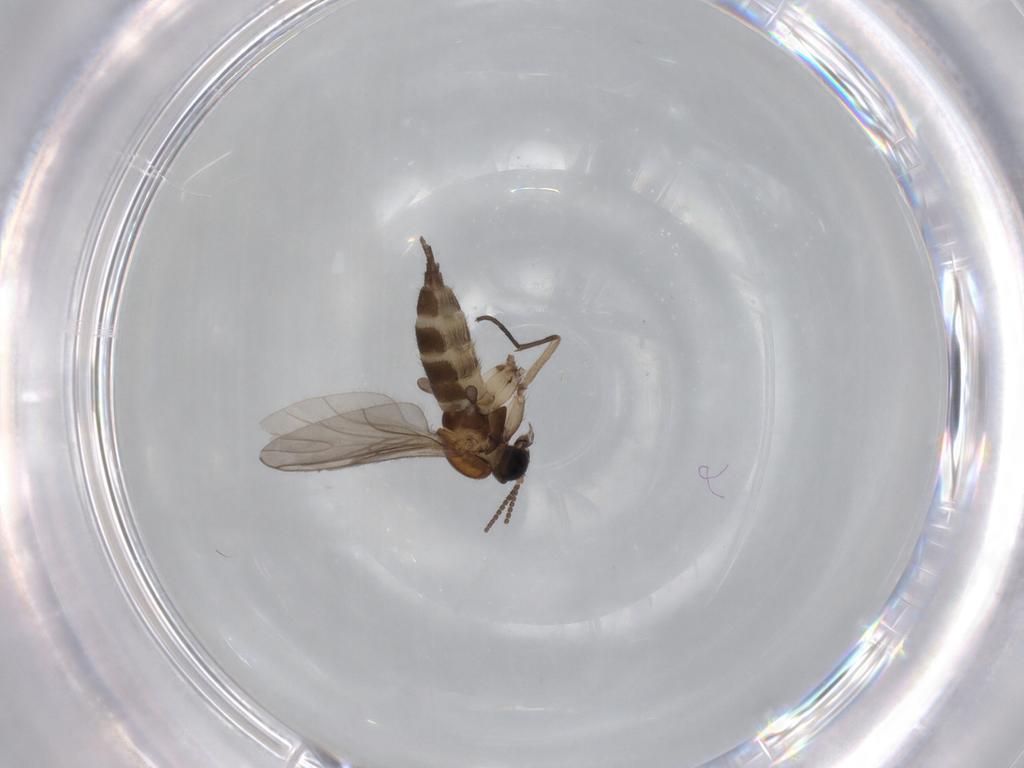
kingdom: Animalia
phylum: Arthropoda
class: Insecta
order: Diptera
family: Sciaridae
